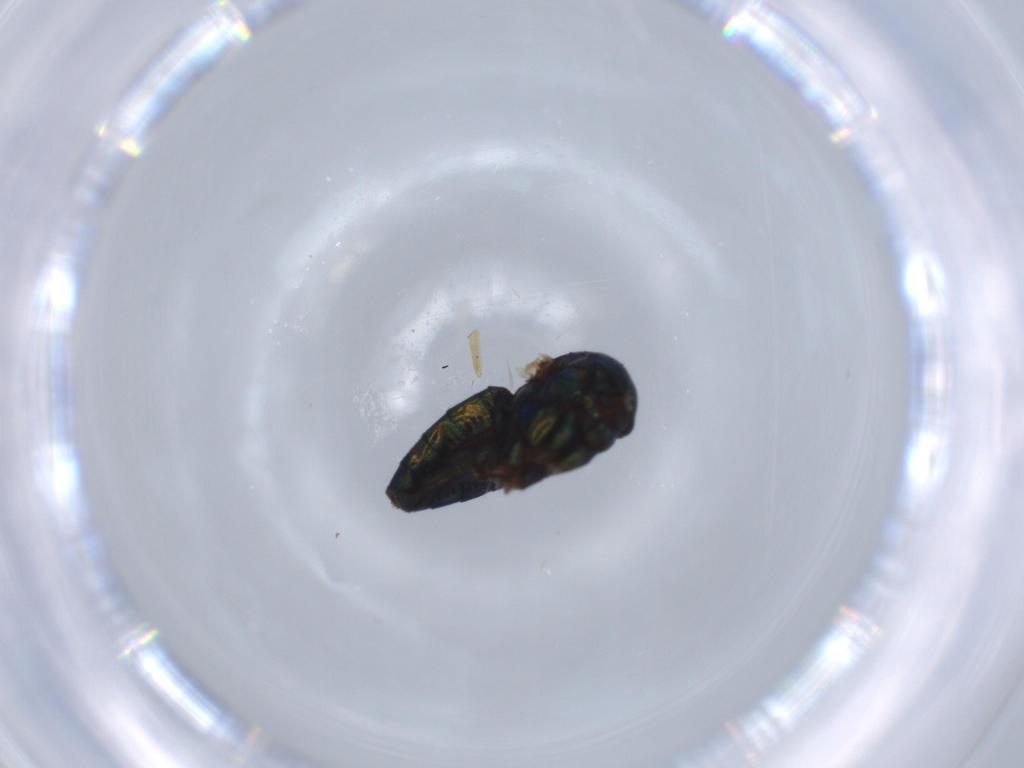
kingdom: Animalia
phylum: Arthropoda
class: Insecta
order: Diptera
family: Dolichopodidae
